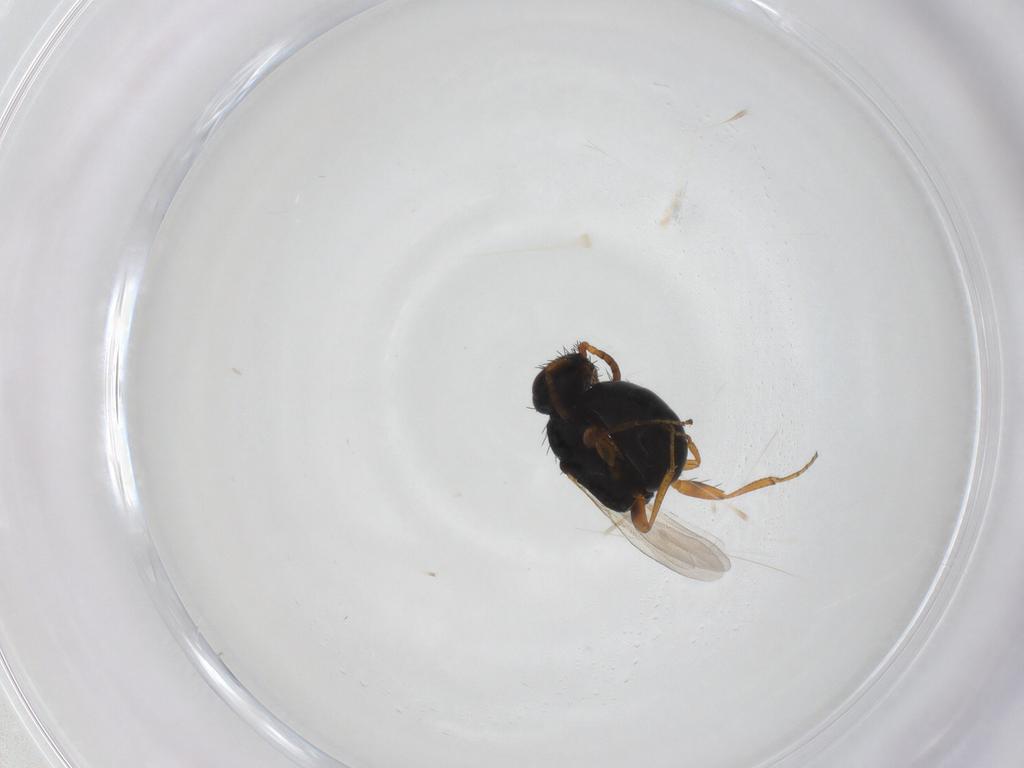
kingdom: Animalia
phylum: Arthropoda
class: Insecta
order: Hymenoptera
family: Bethylidae
